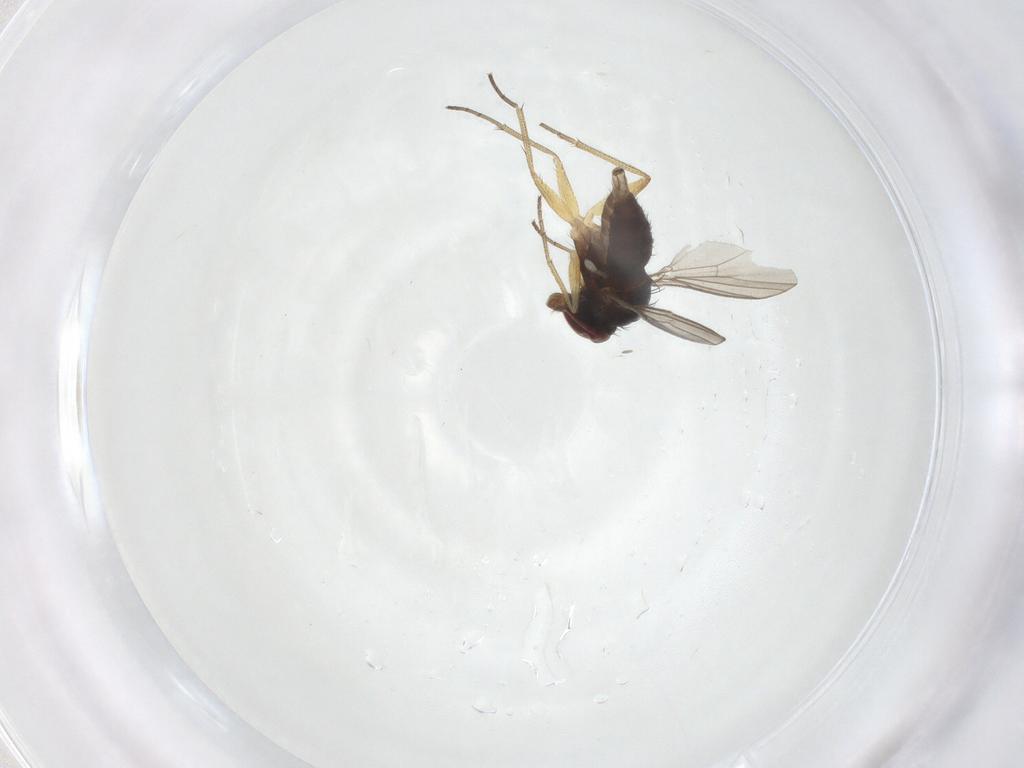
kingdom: Animalia
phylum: Arthropoda
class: Insecta
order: Diptera
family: Dolichopodidae
